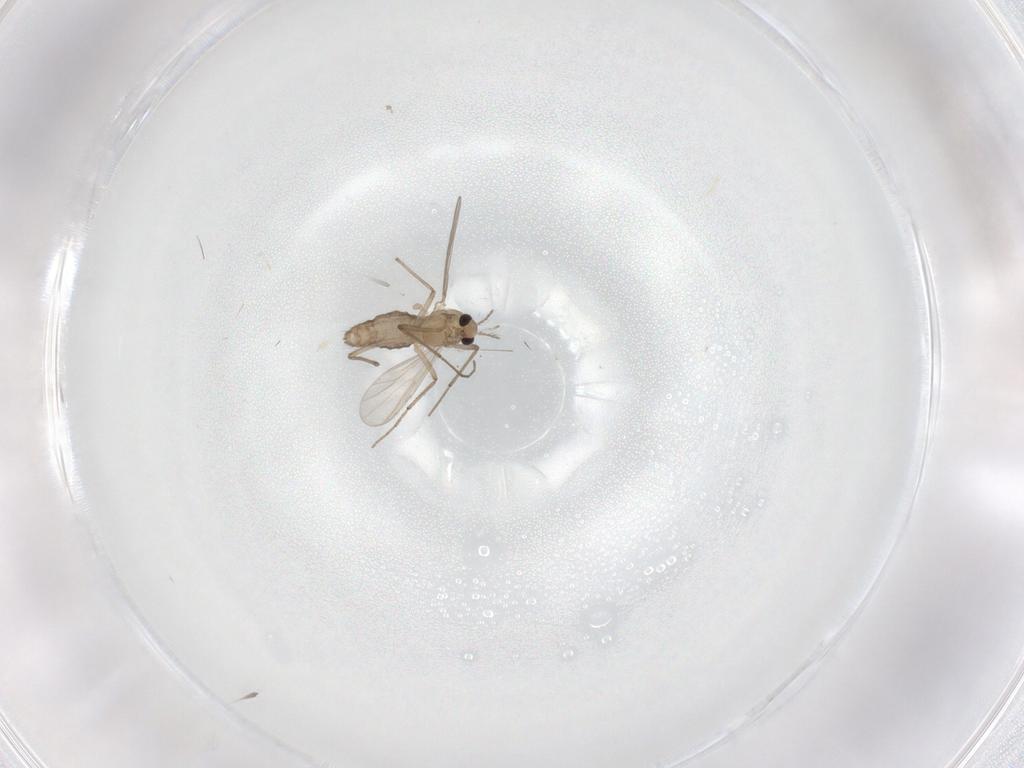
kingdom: Animalia
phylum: Arthropoda
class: Insecta
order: Diptera
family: Chironomidae
